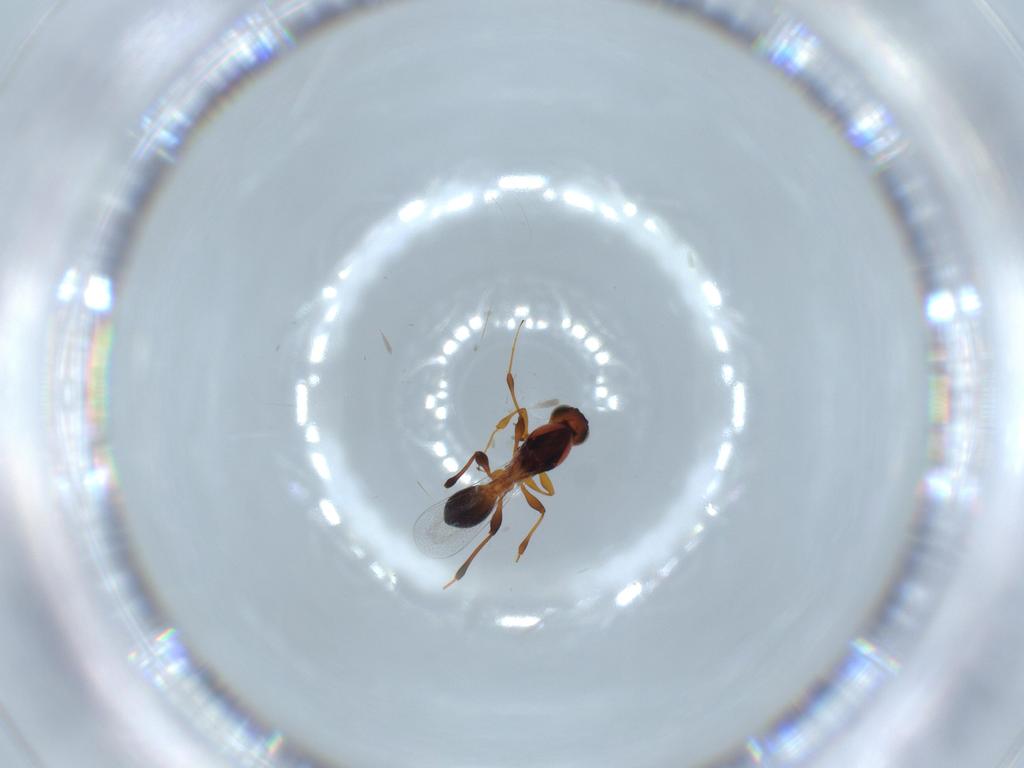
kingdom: Animalia
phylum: Arthropoda
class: Insecta
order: Hymenoptera
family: Platygastridae
